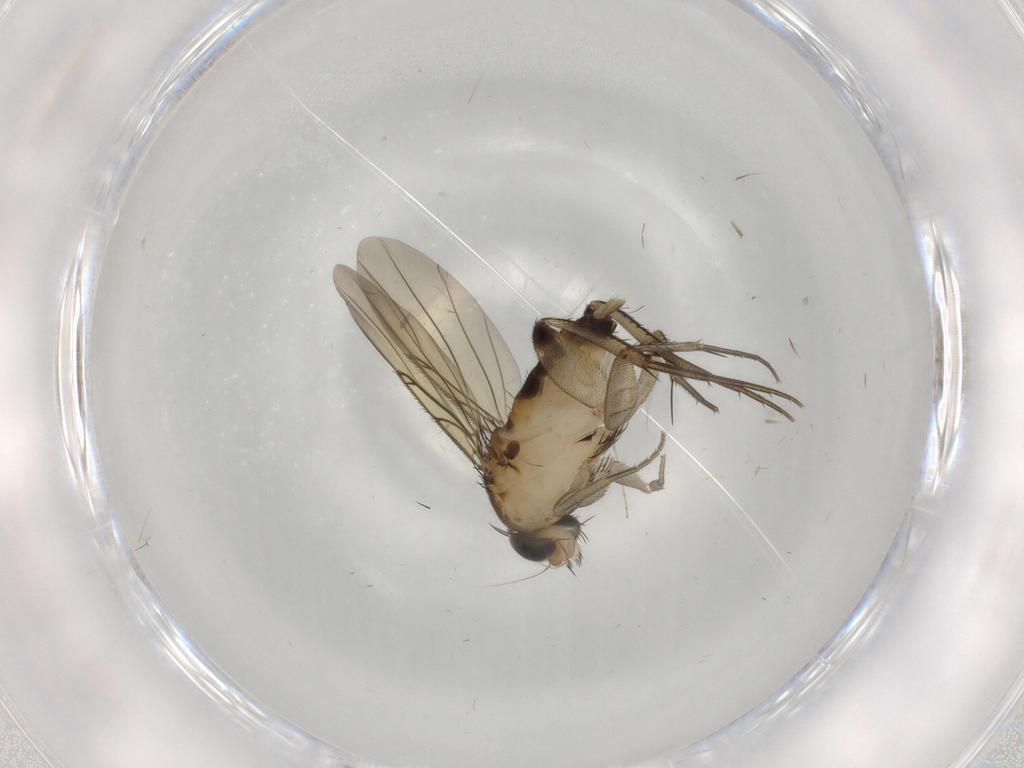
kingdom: Animalia
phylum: Arthropoda
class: Insecta
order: Diptera
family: Phoridae
